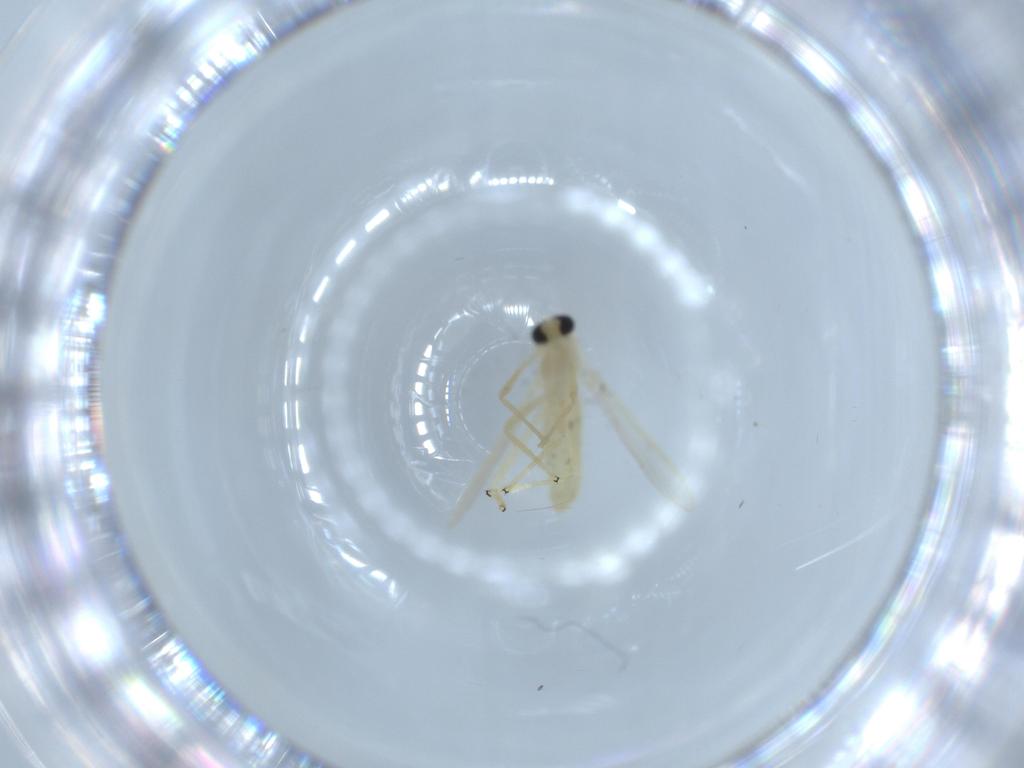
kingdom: Animalia
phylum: Arthropoda
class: Insecta
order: Diptera
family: Chironomidae
